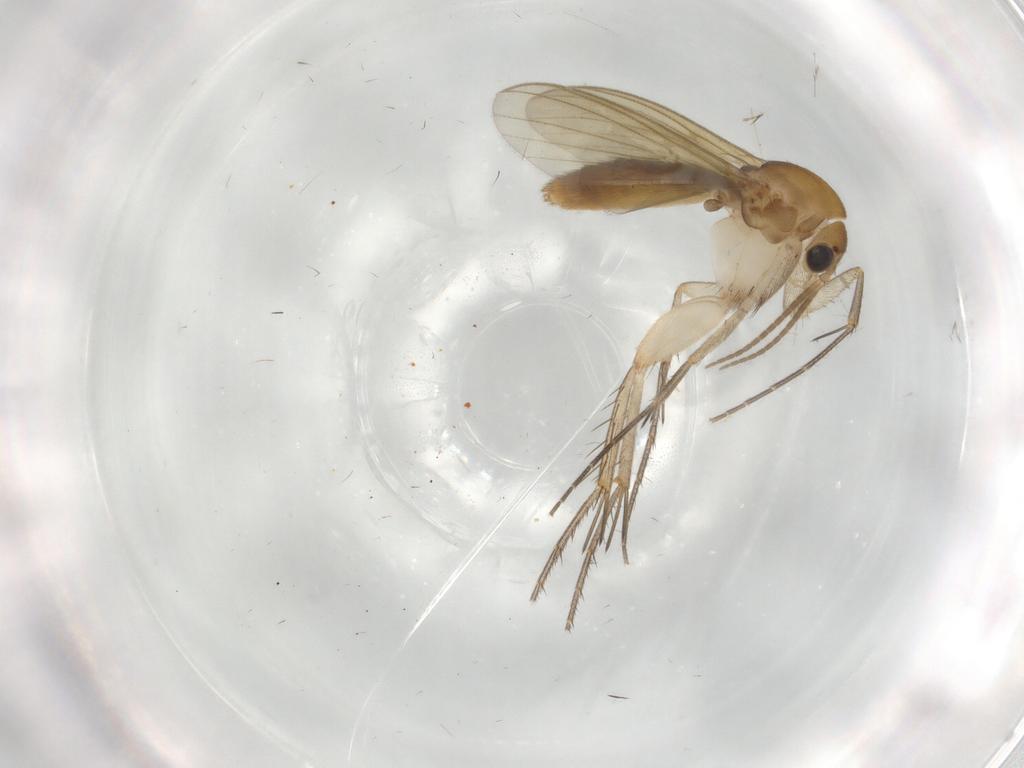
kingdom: Animalia
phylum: Arthropoda
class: Insecta
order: Diptera
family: Mycetophilidae
